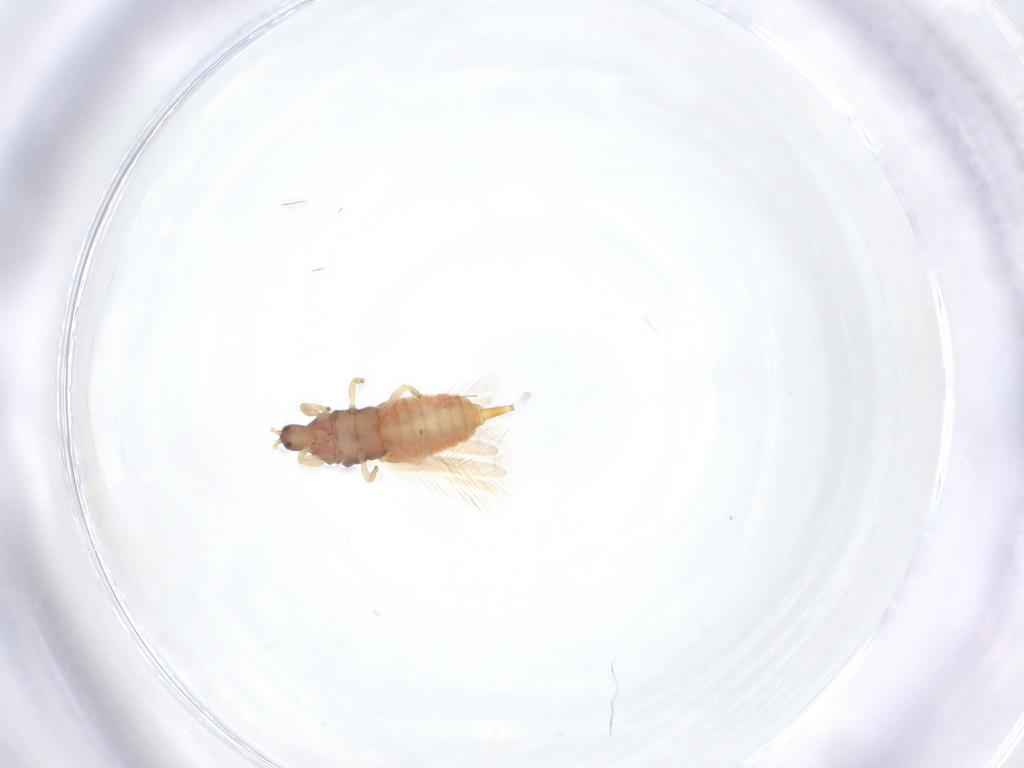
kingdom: Animalia
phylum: Arthropoda
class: Insecta
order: Thysanoptera
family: Phlaeothripidae
